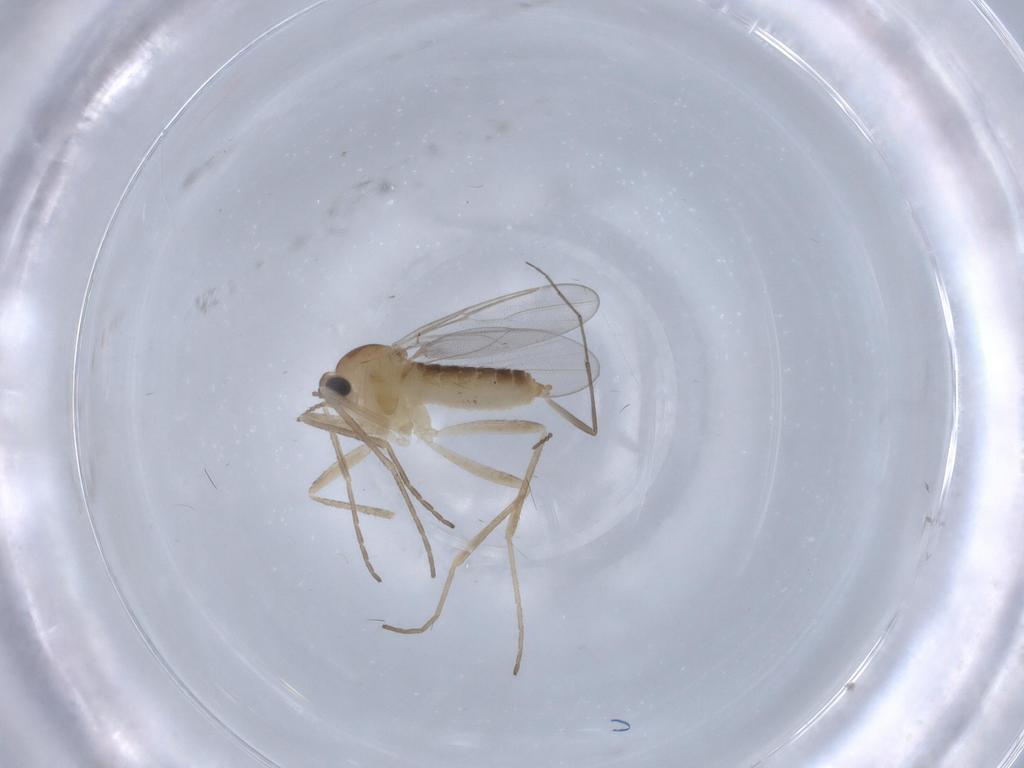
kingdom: Animalia
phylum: Arthropoda
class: Insecta
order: Diptera
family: Cecidomyiidae
